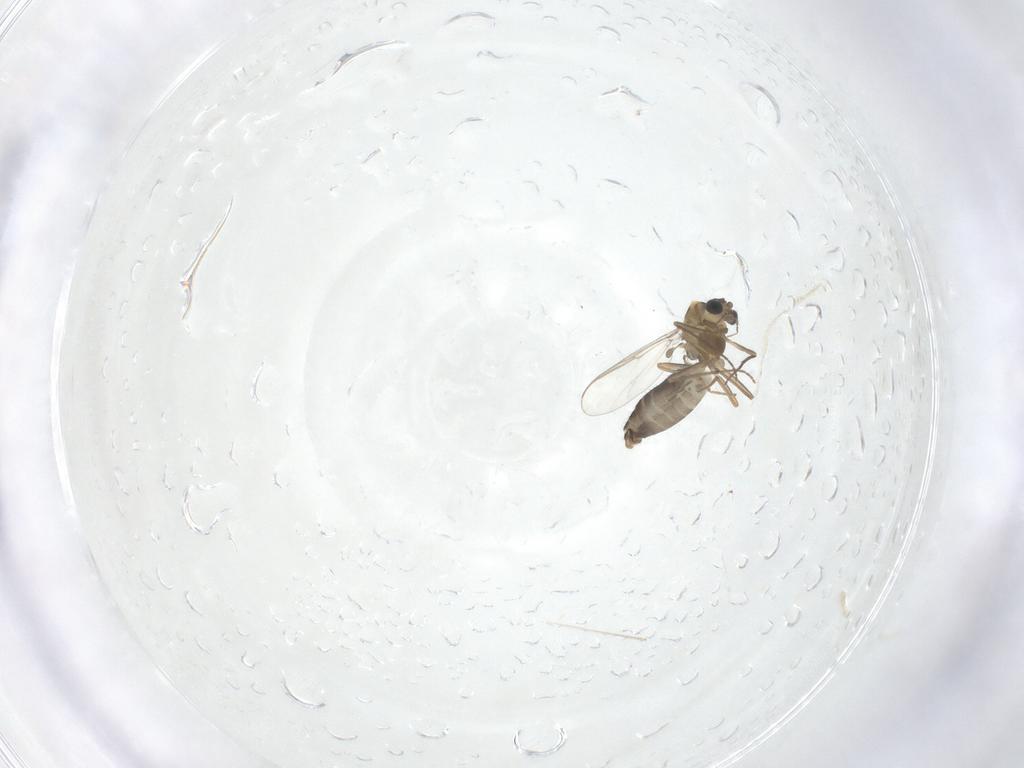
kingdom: Animalia
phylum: Arthropoda
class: Insecta
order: Diptera
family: Chironomidae
